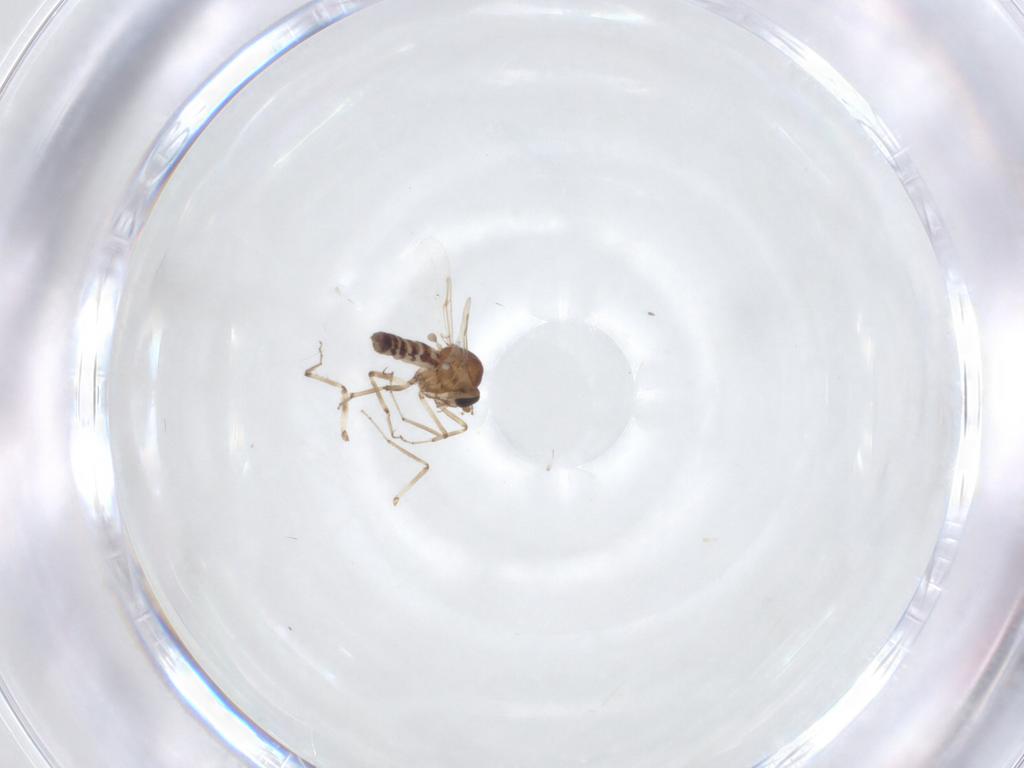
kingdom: Animalia
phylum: Arthropoda
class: Insecta
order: Diptera
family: Ceratopogonidae
